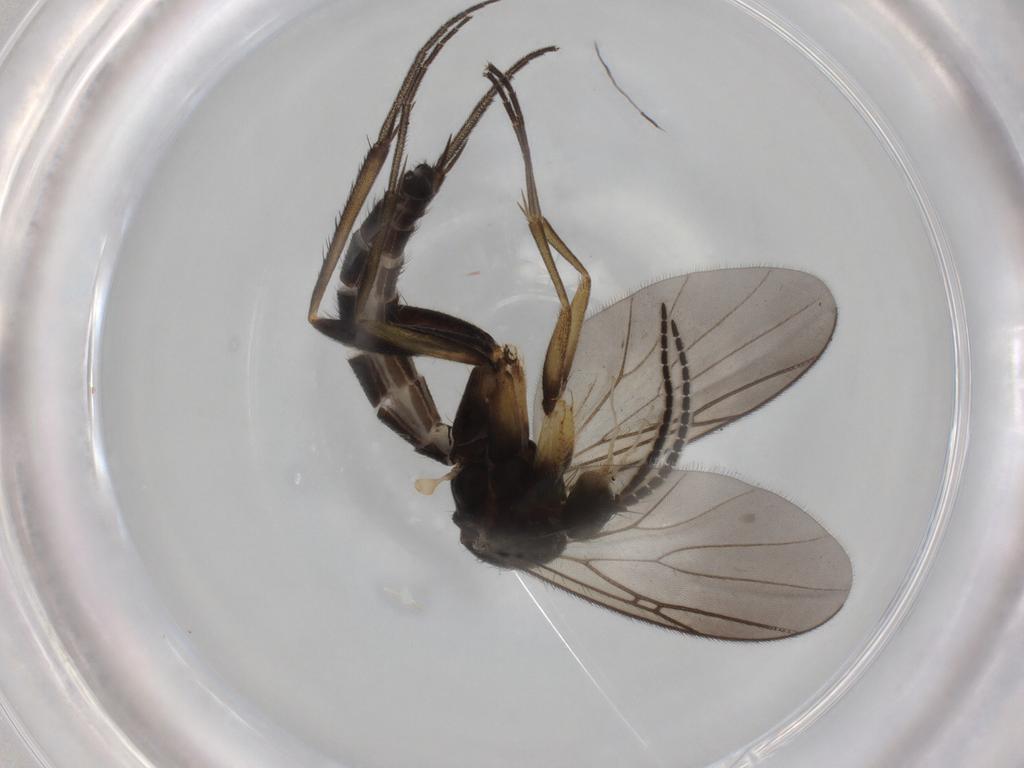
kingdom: Animalia
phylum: Arthropoda
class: Insecta
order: Diptera
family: Mycetophilidae
